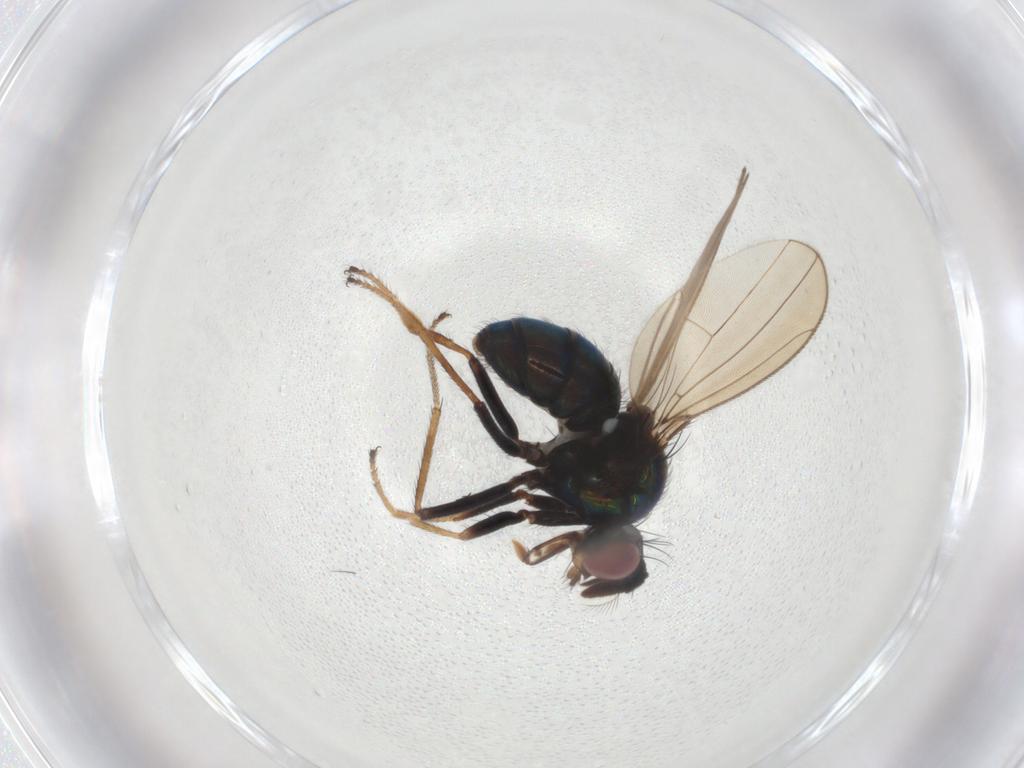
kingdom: Animalia
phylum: Arthropoda
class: Insecta
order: Diptera
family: Ephydridae
